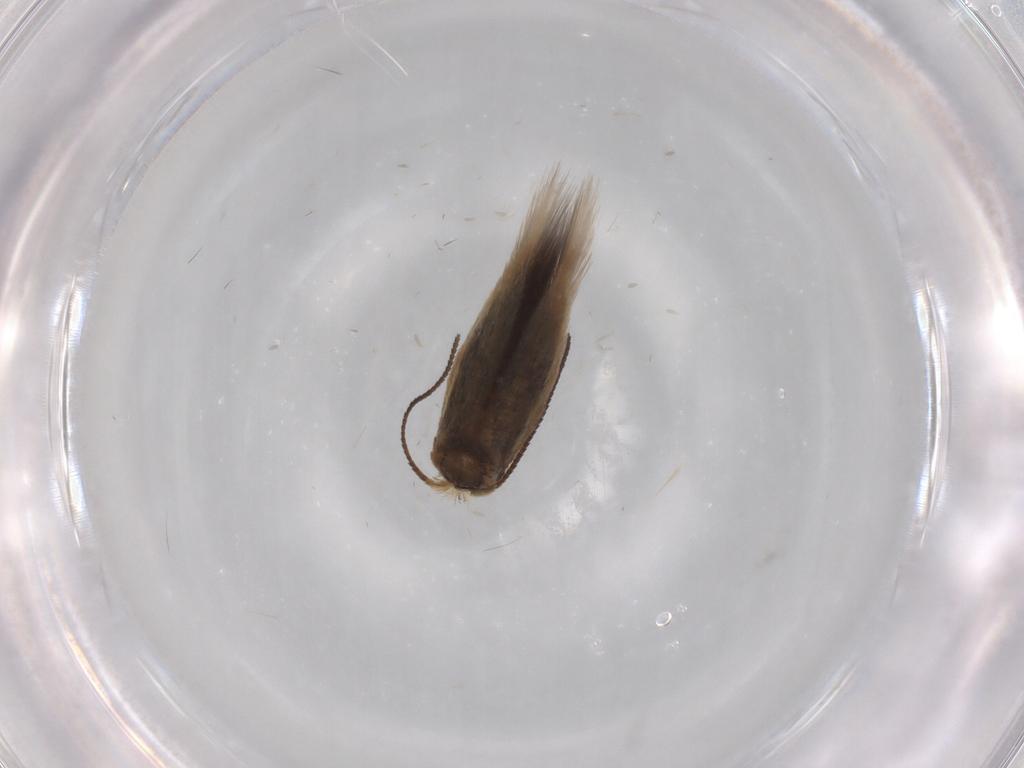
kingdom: Animalia
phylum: Arthropoda
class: Insecta
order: Lepidoptera
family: Nepticulidae
